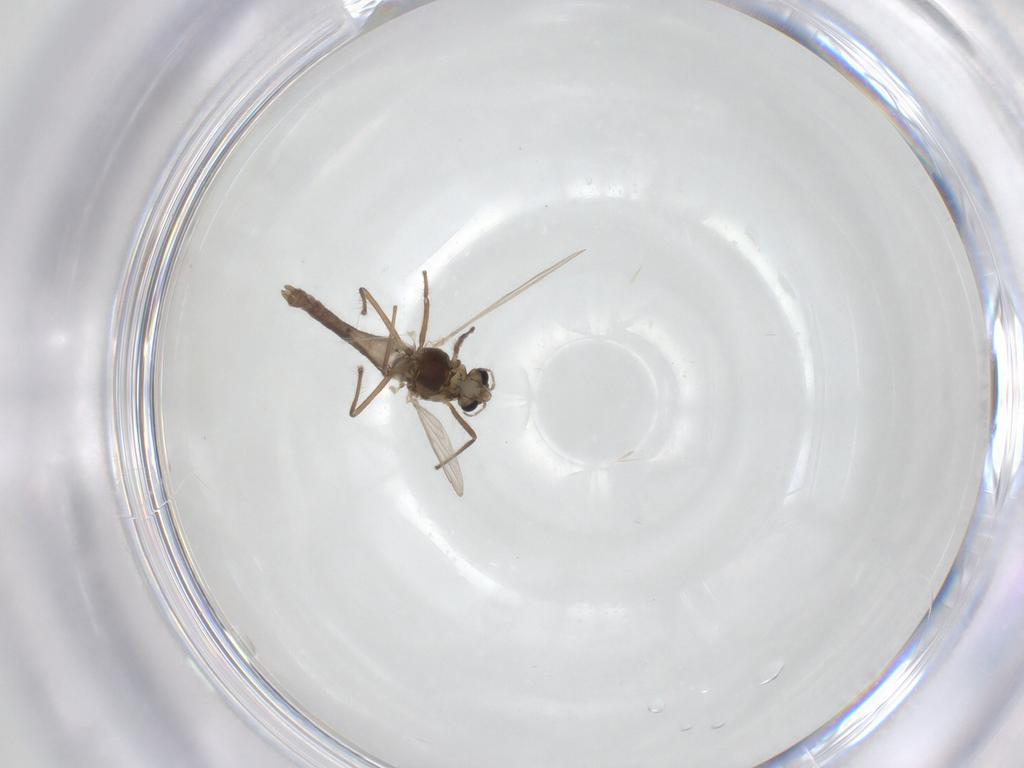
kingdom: Animalia
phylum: Arthropoda
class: Insecta
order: Diptera
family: Chironomidae
